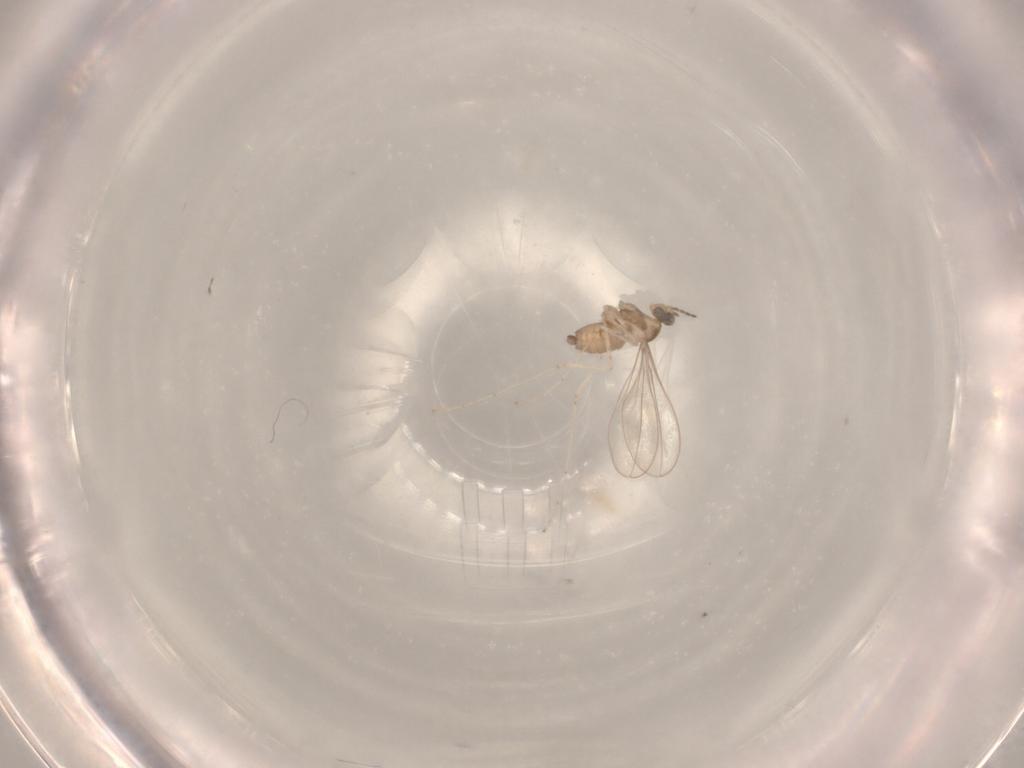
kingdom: Animalia
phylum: Arthropoda
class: Insecta
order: Diptera
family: Cecidomyiidae
